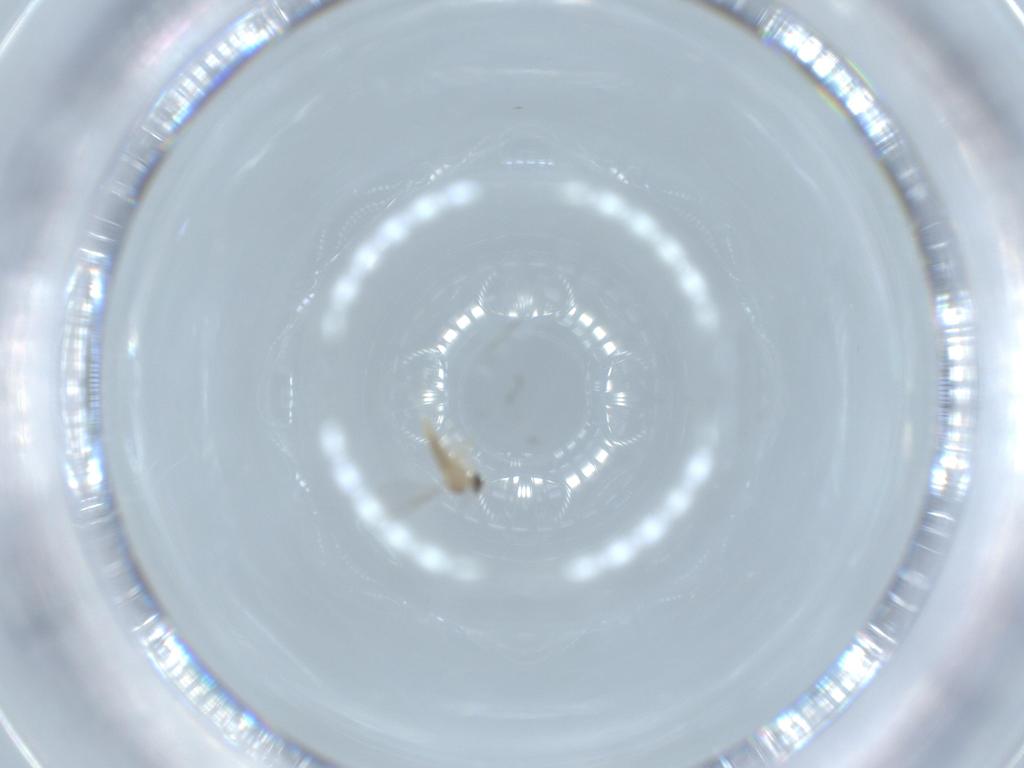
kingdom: Animalia
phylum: Arthropoda
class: Insecta
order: Diptera
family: Cecidomyiidae
